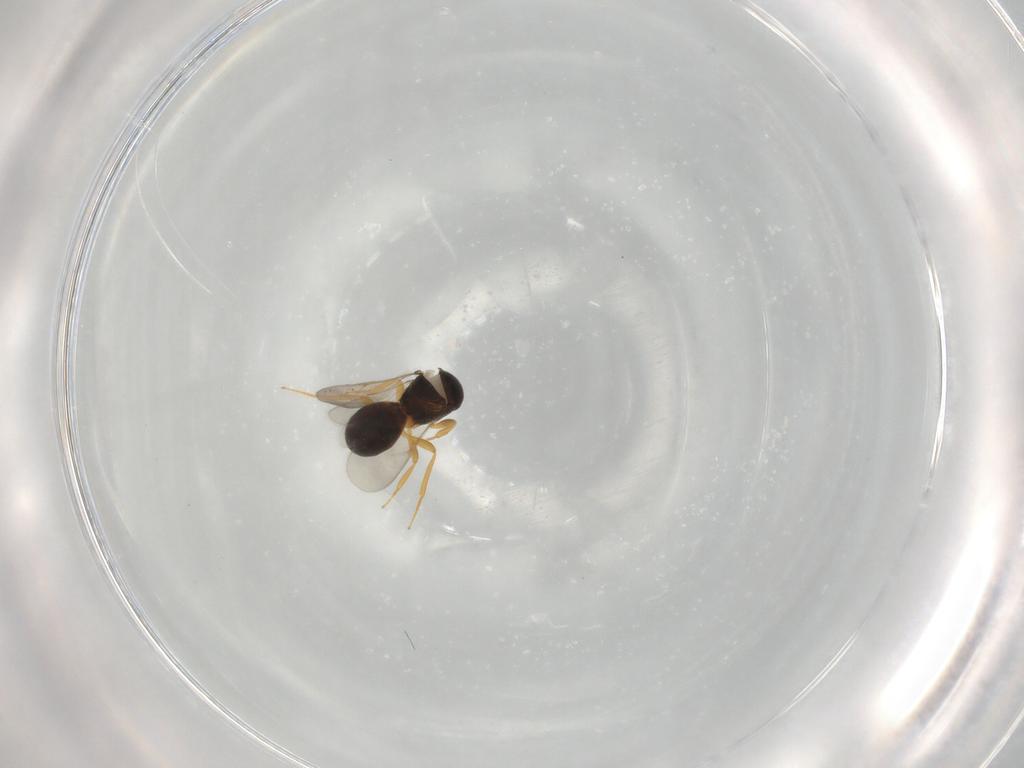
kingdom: Animalia
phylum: Arthropoda
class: Insecta
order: Hymenoptera
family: Scelionidae
